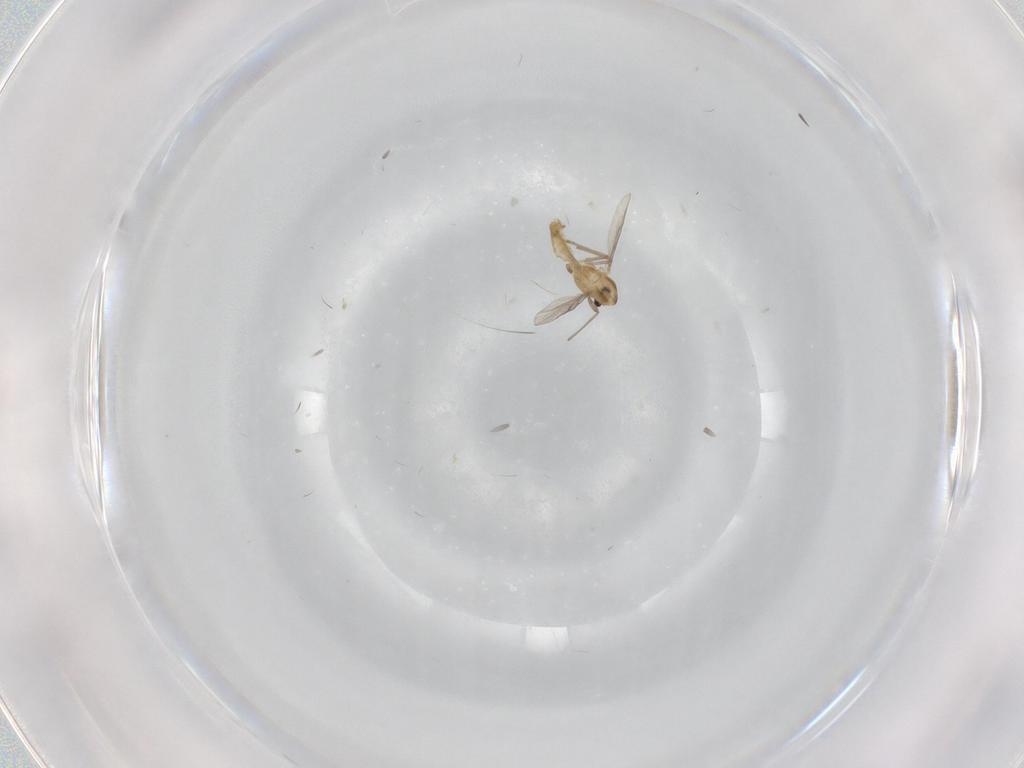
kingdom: Animalia
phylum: Arthropoda
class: Insecta
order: Diptera
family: Chironomidae
